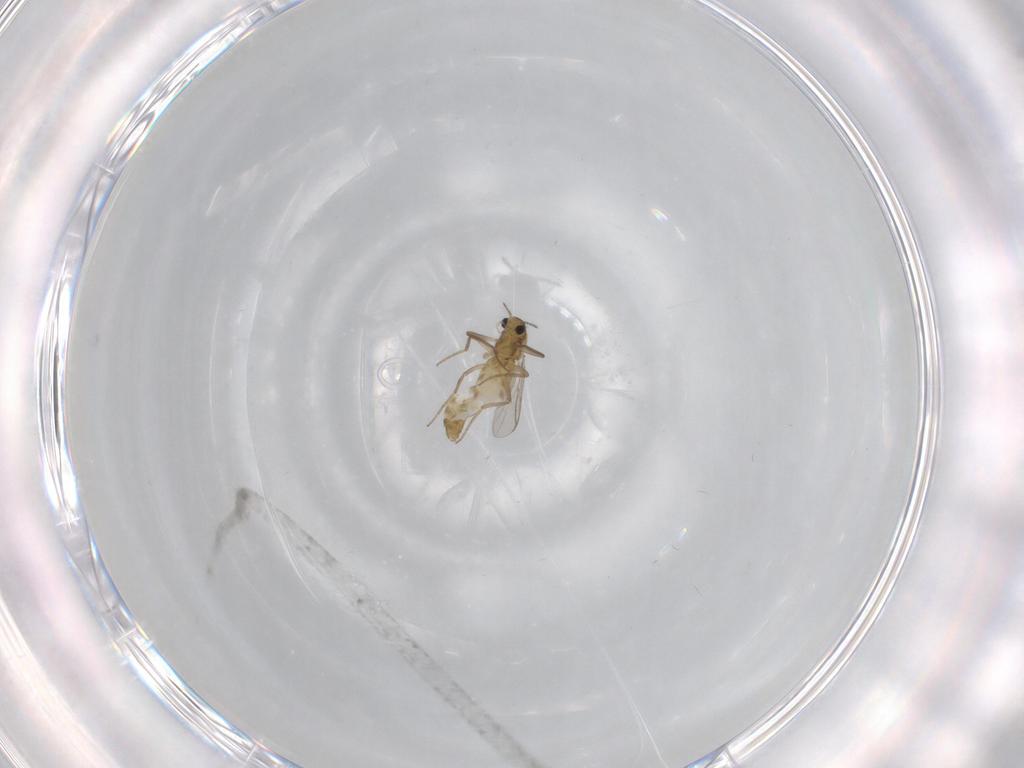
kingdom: Animalia
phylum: Arthropoda
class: Insecta
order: Diptera
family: Chironomidae
